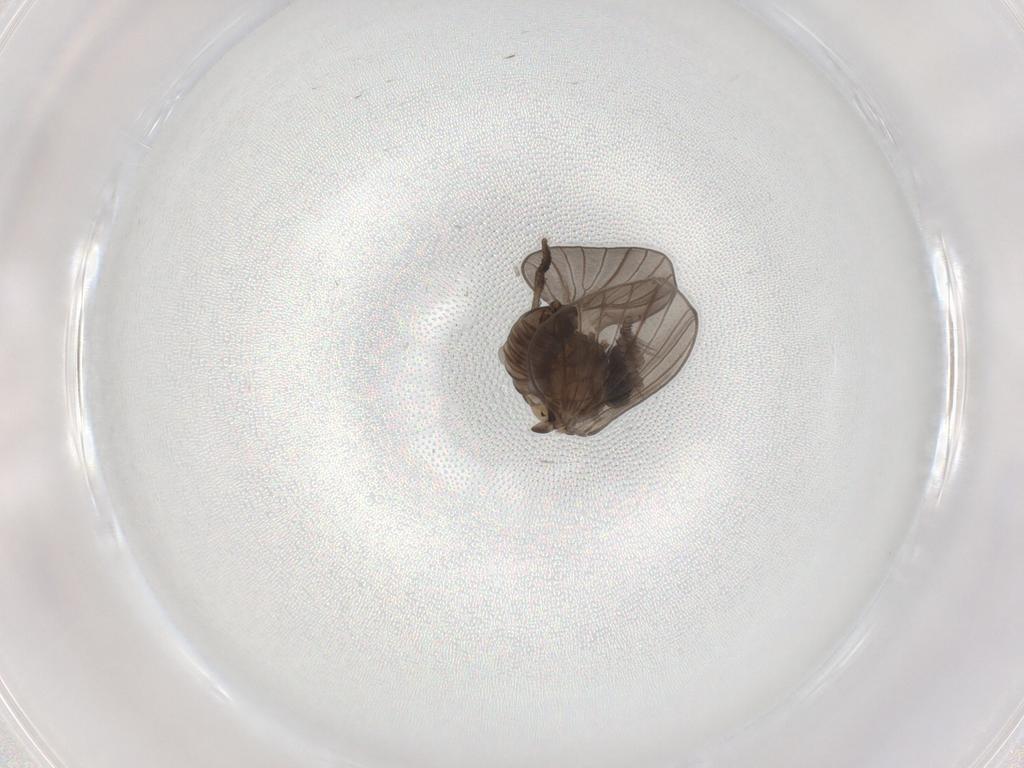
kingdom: Animalia
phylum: Arthropoda
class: Insecta
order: Diptera
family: Psychodidae
